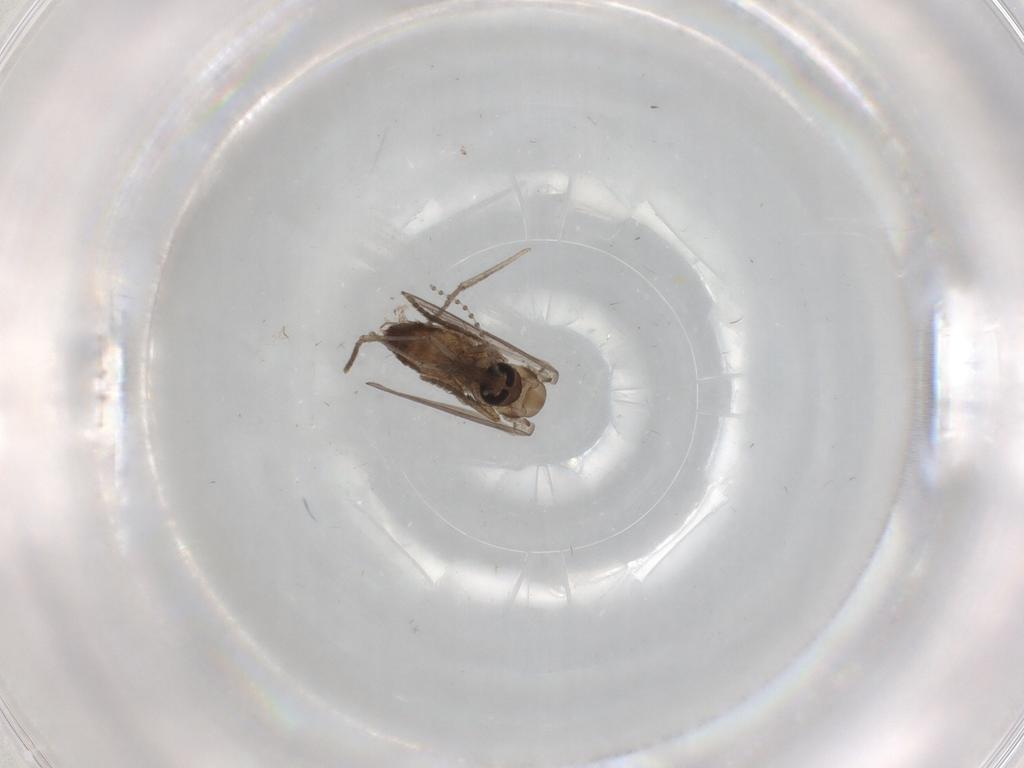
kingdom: Animalia
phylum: Arthropoda
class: Insecta
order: Diptera
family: Psychodidae
